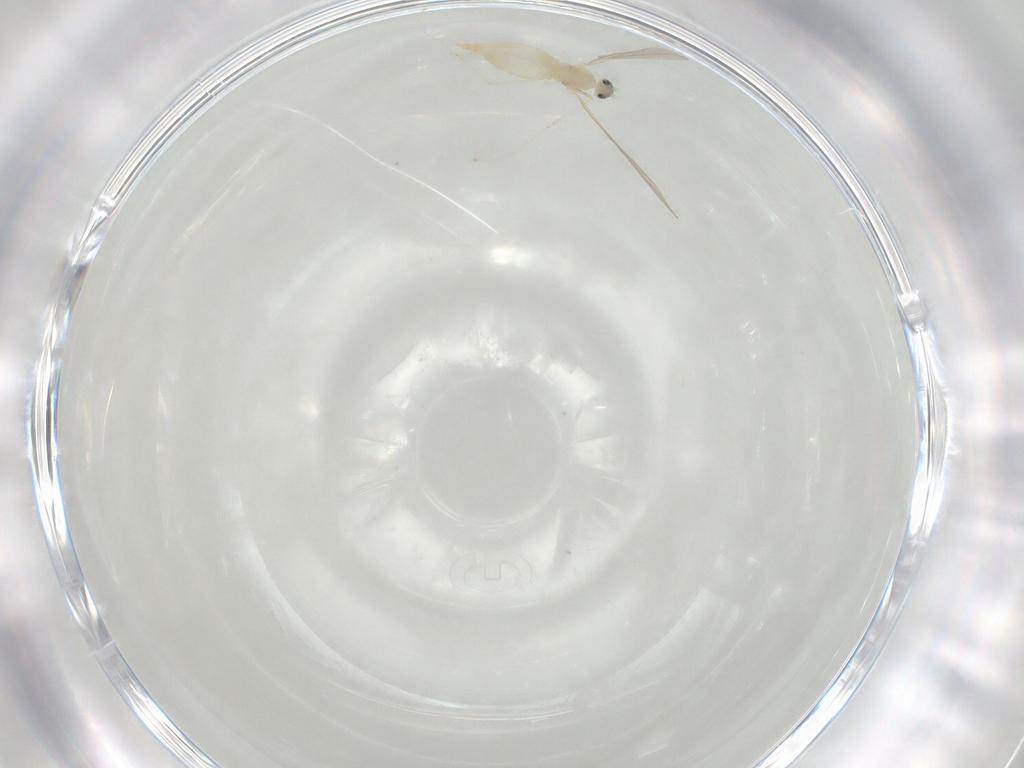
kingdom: Animalia
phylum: Arthropoda
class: Insecta
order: Diptera
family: Cecidomyiidae
